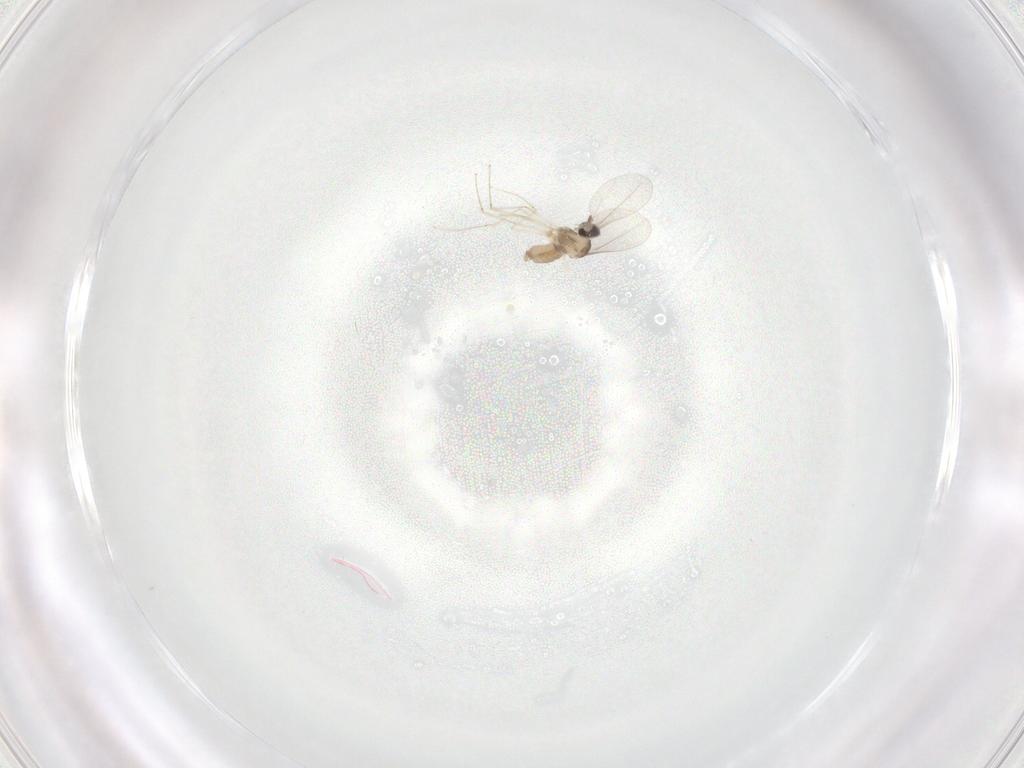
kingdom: Animalia
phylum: Arthropoda
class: Insecta
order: Diptera
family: Cecidomyiidae
